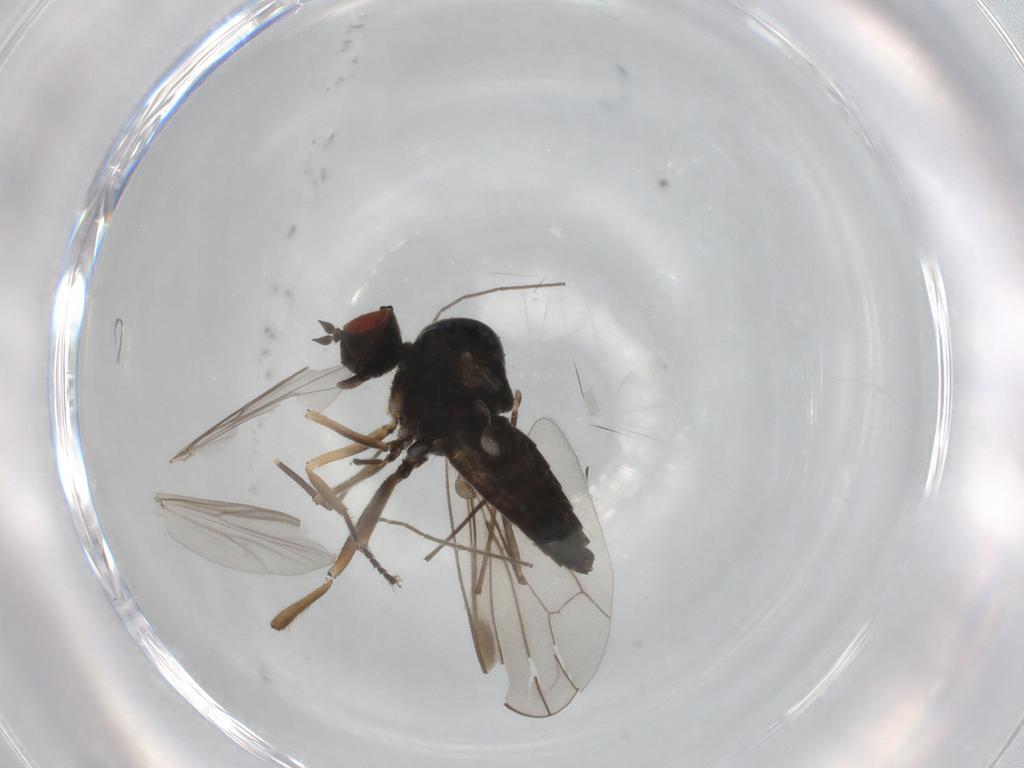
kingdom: Animalia
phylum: Arthropoda
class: Insecta
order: Diptera
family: Hybotidae
